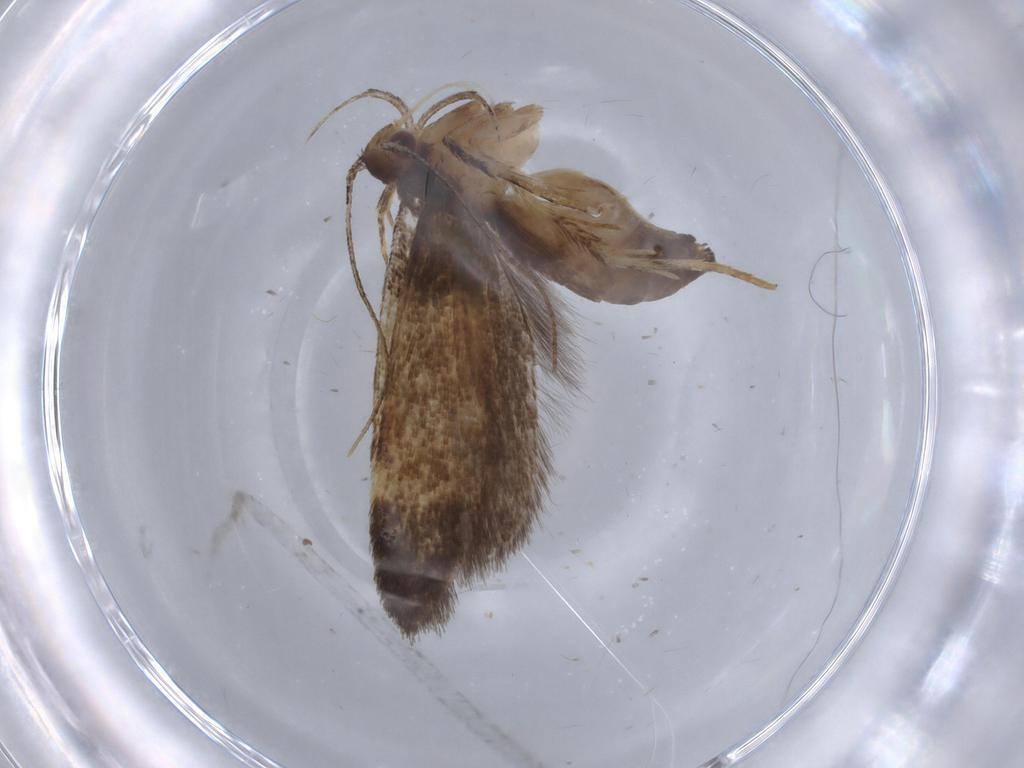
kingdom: Animalia
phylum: Arthropoda
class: Insecta
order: Lepidoptera
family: Cosmopterigidae
